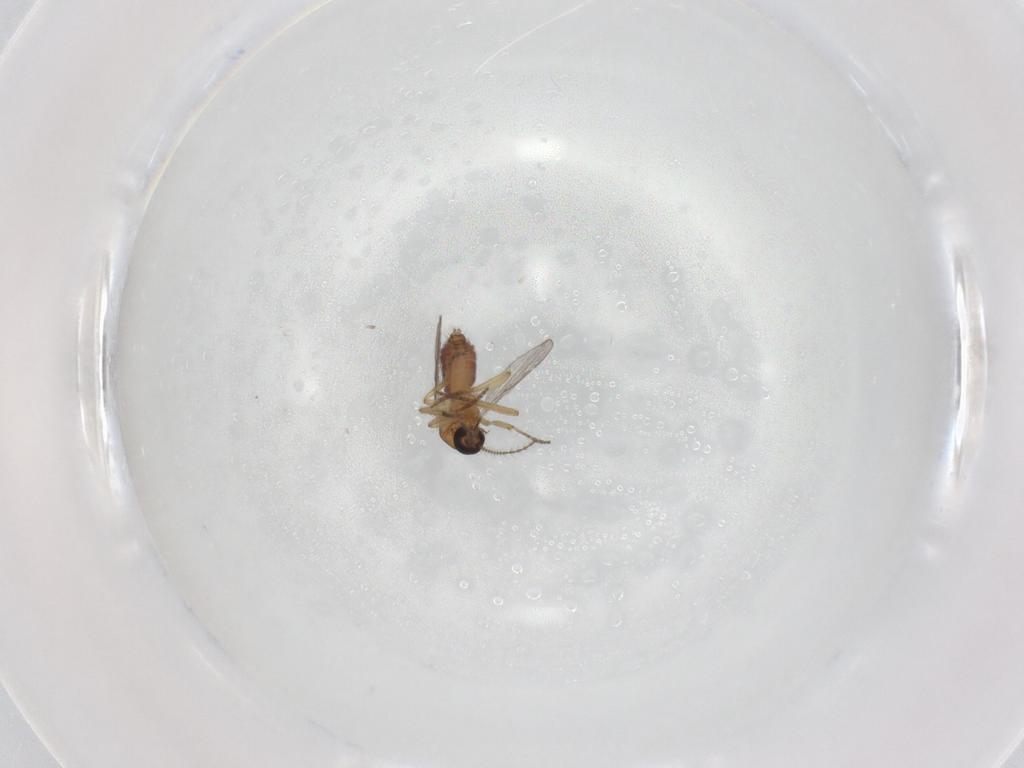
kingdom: Animalia
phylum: Arthropoda
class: Insecta
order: Diptera
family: Ceratopogonidae
